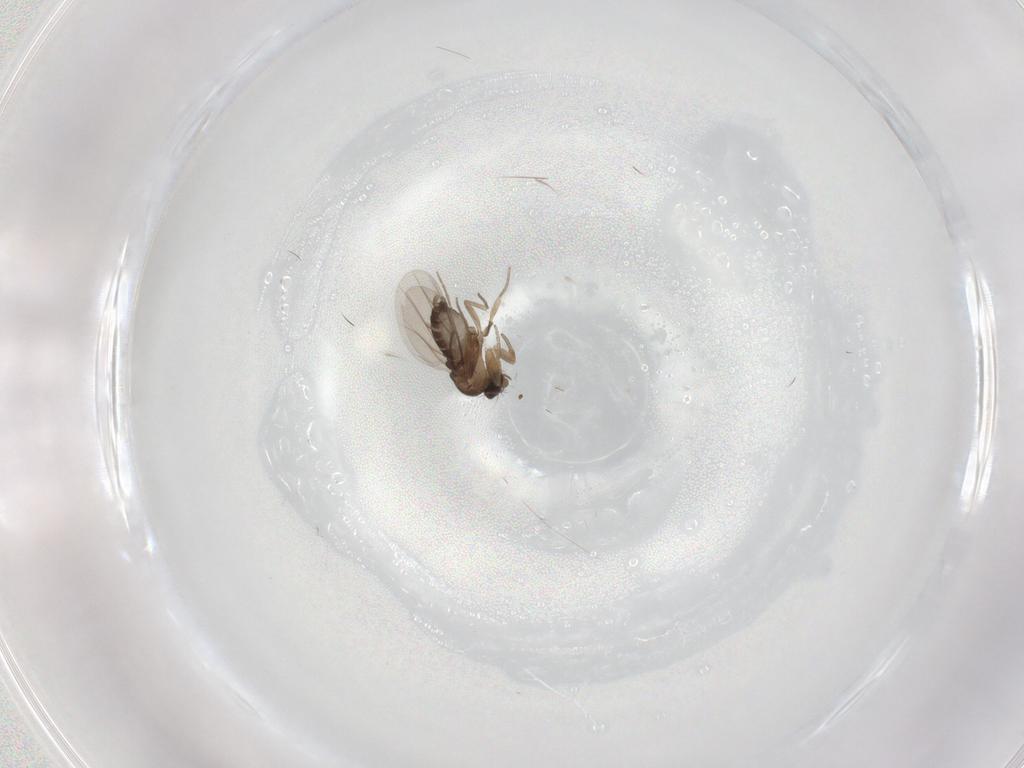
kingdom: Animalia
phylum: Arthropoda
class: Insecta
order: Diptera
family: Phoridae
